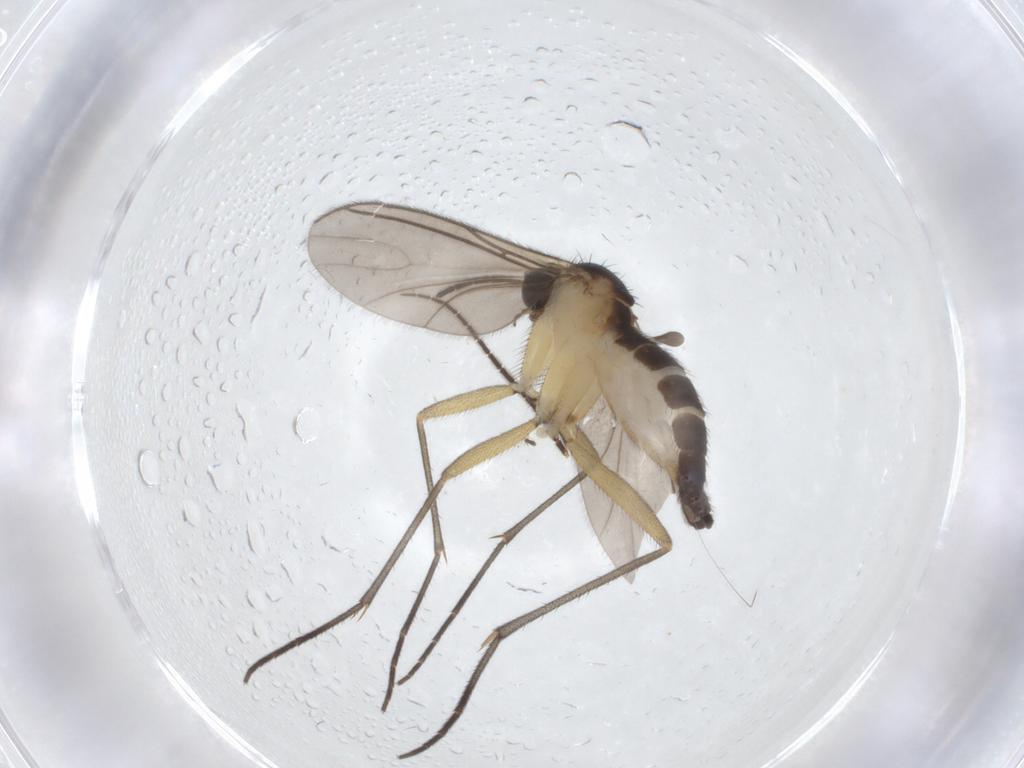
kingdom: Animalia
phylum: Arthropoda
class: Insecta
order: Diptera
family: Sciaridae
